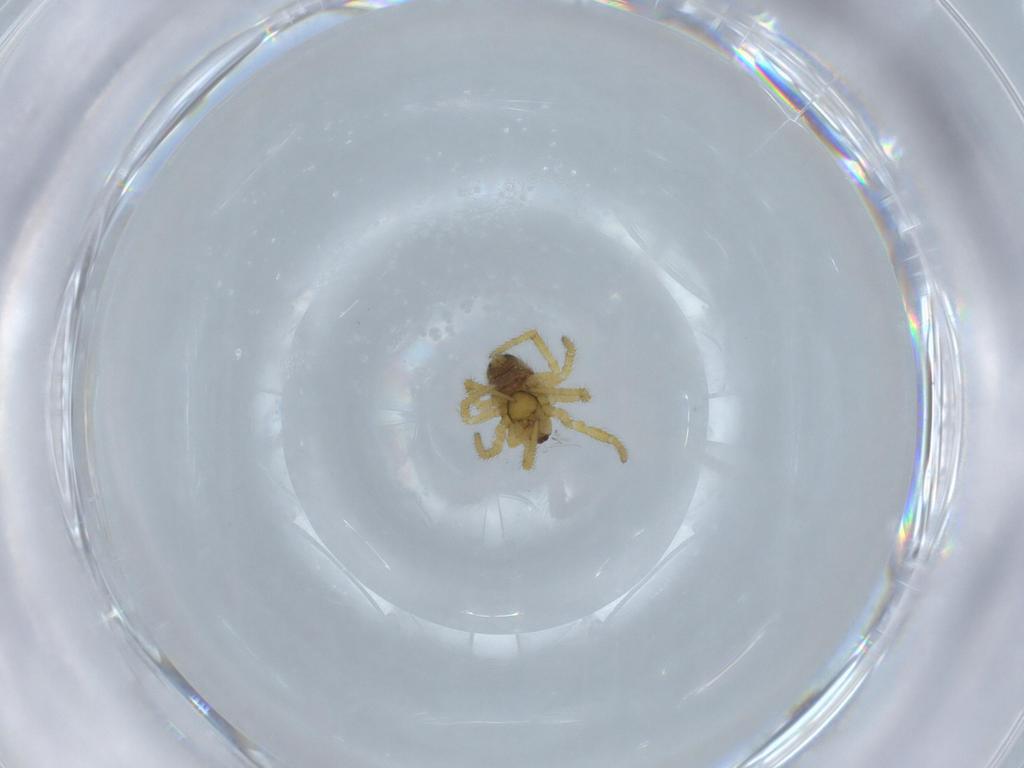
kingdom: Animalia
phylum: Arthropoda
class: Arachnida
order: Araneae
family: Theridiidae
